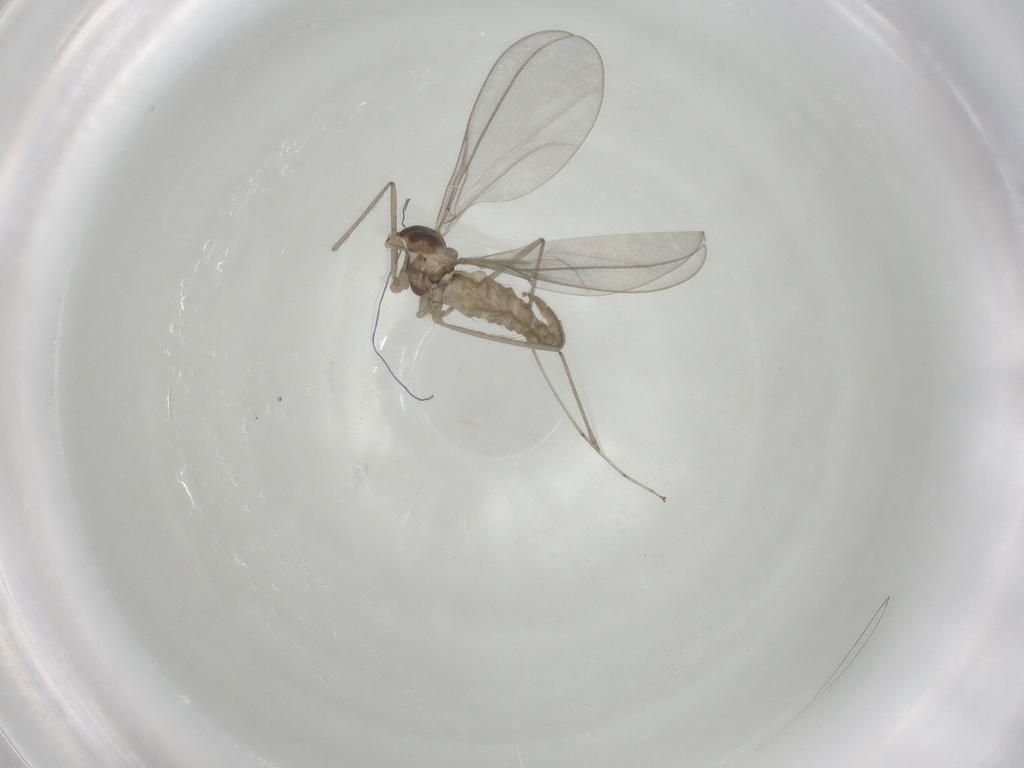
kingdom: Animalia
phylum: Arthropoda
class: Insecta
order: Diptera
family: Cecidomyiidae
